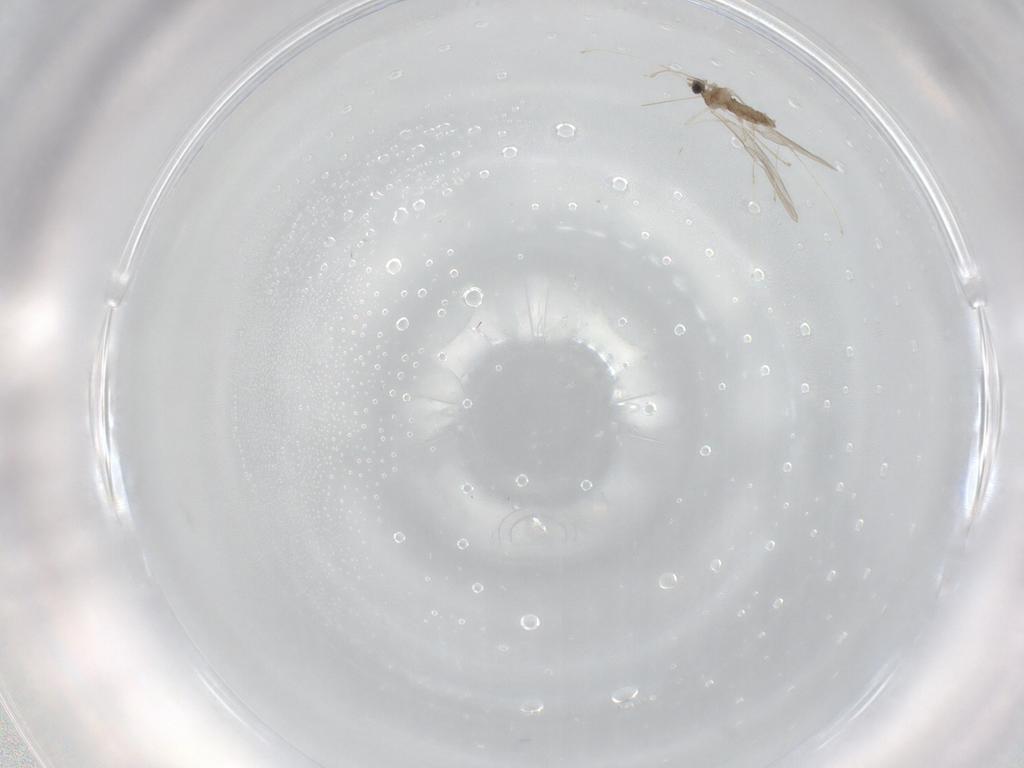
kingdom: Animalia
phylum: Arthropoda
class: Insecta
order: Diptera
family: Cecidomyiidae
